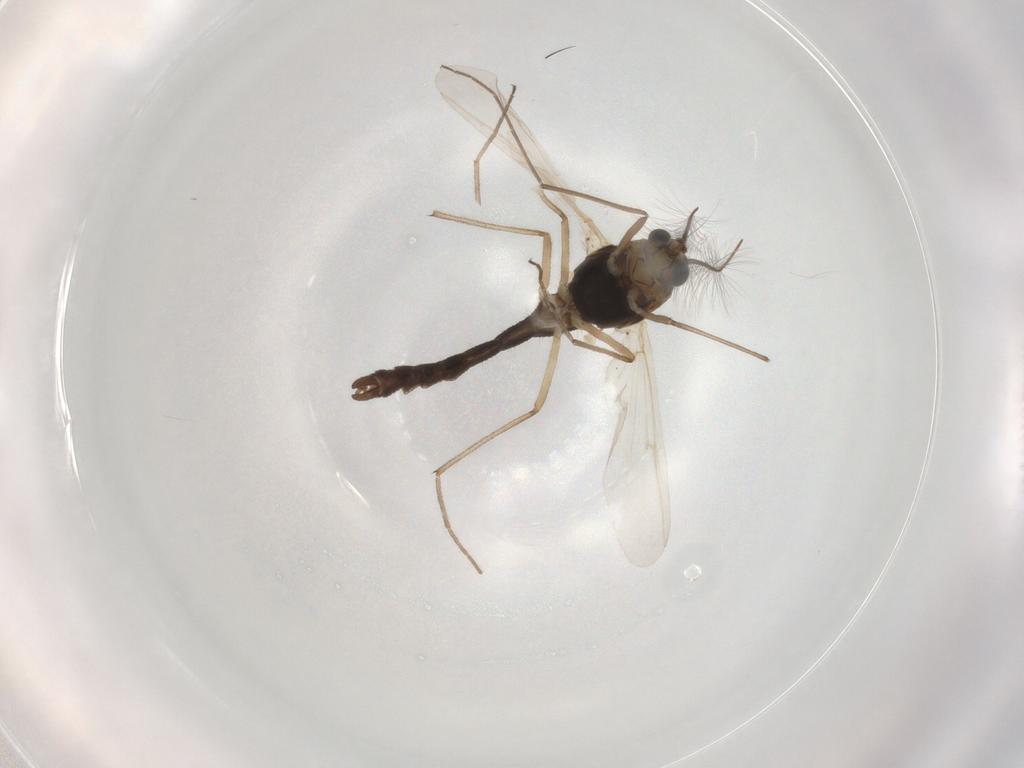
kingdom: Animalia
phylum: Arthropoda
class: Insecta
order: Diptera
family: Chironomidae
